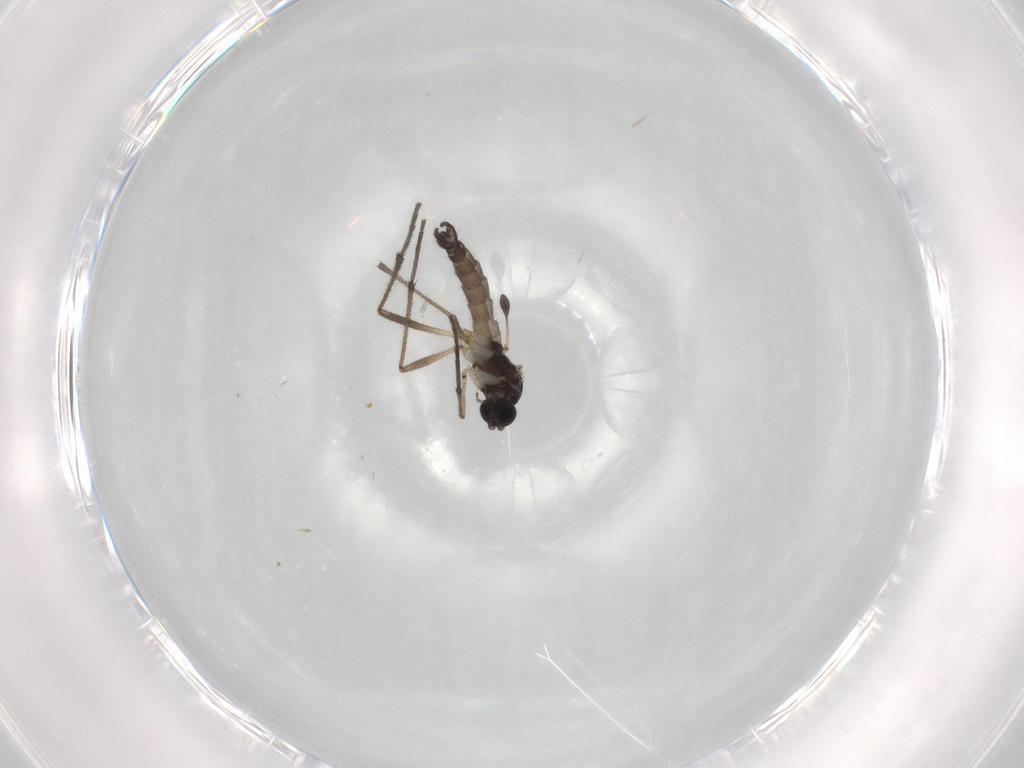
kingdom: Animalia
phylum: Arthropoda
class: Insecta
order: Diptera
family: Sciaridae
